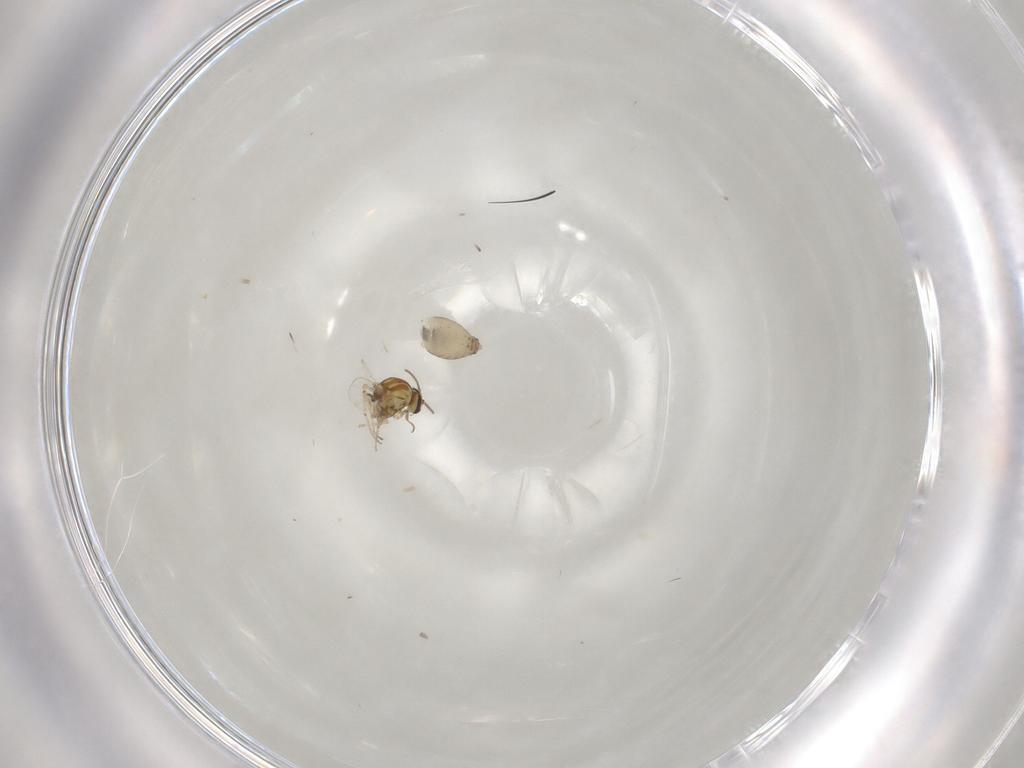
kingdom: Animalia
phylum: Arthropoda
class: Insecta
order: Diptera
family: Ceratopogonidae
